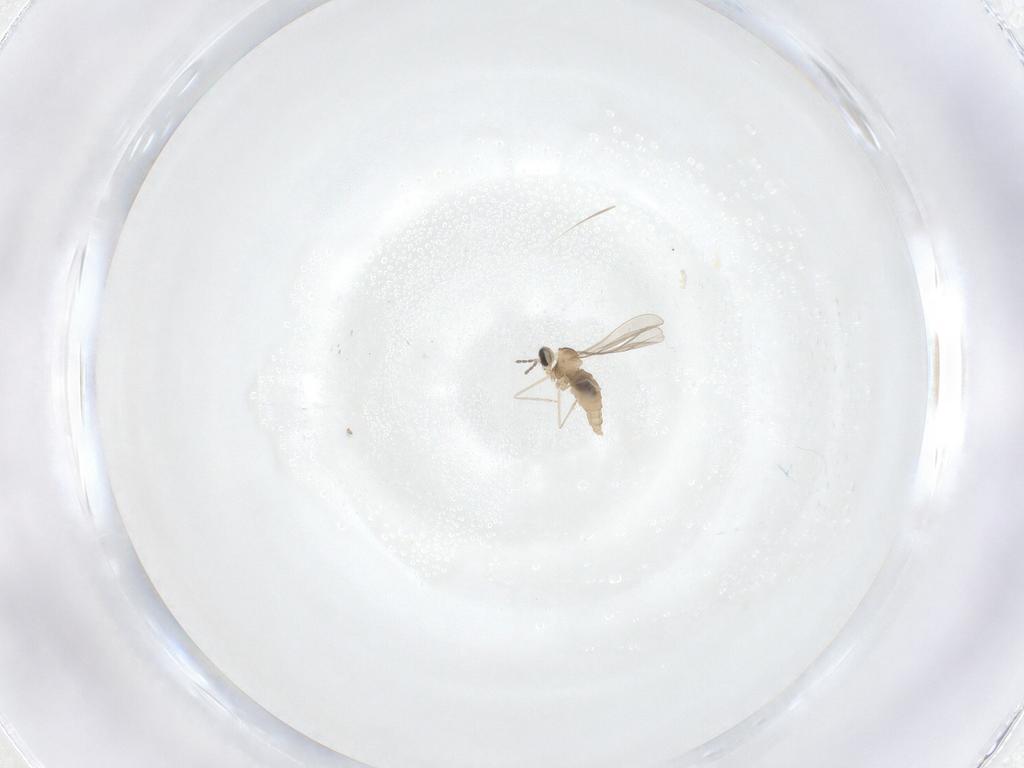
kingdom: Animalia
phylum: Arthropoda
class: Insecta
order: Diptera
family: Cecidomyiidae
